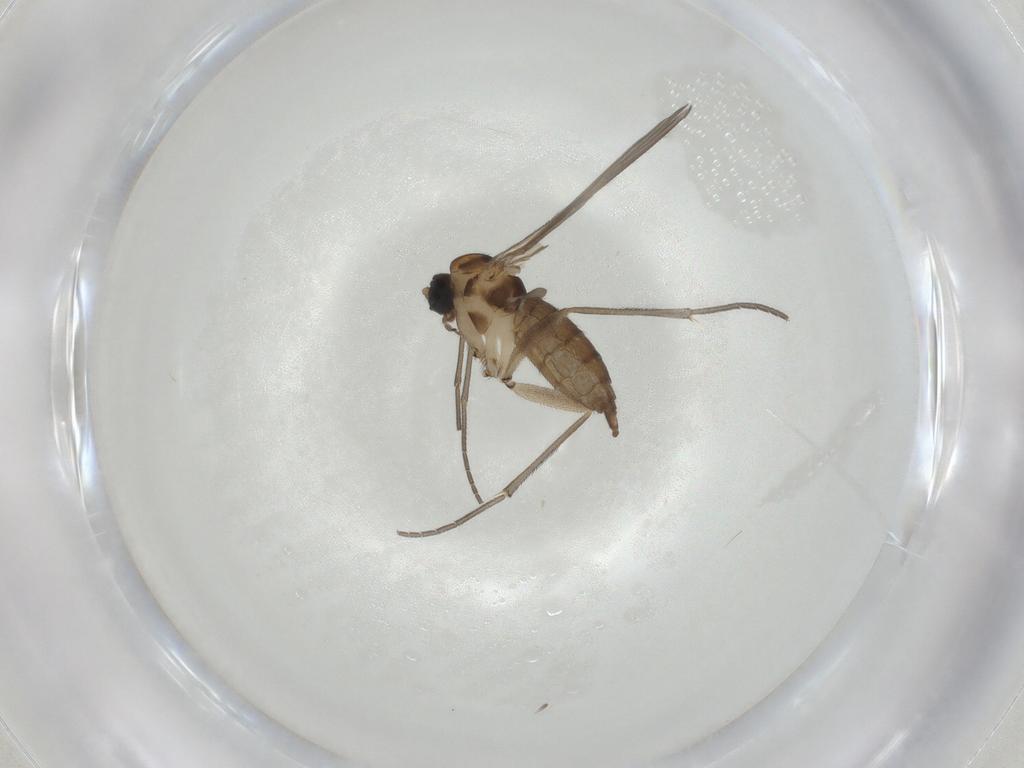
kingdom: Animalia
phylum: Arthropoda
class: Insecta
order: Diptera
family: Sciaridae
